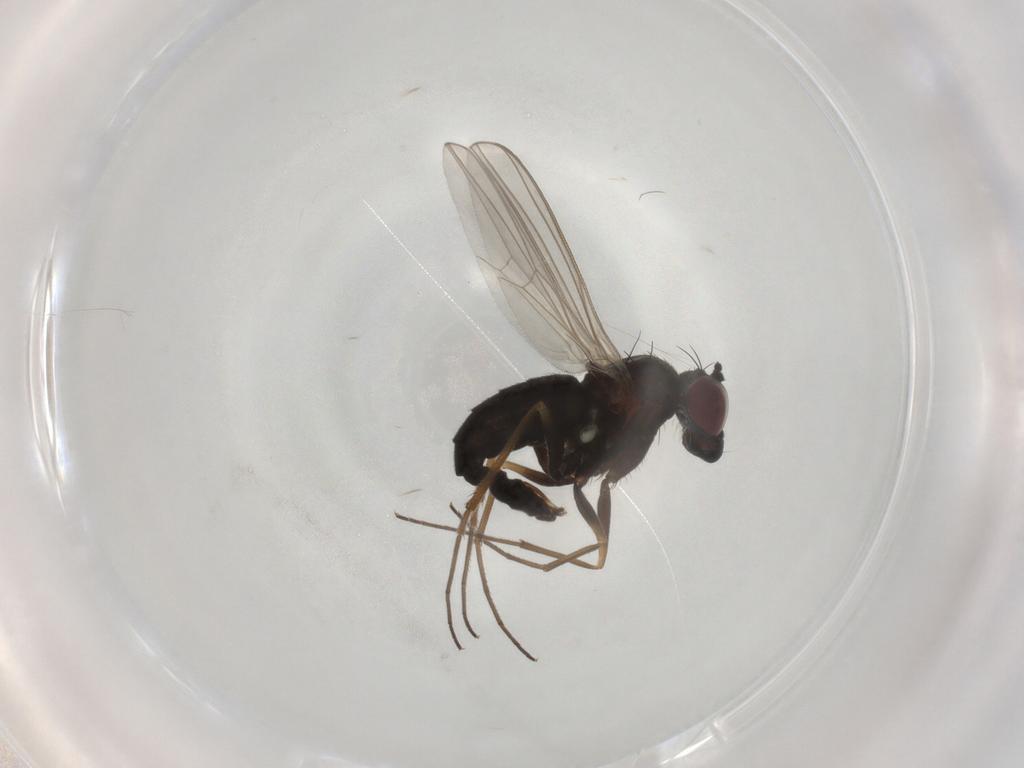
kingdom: Animalia
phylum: Arthropoda
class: Insecta
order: Diptera
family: Dolichopodidae
